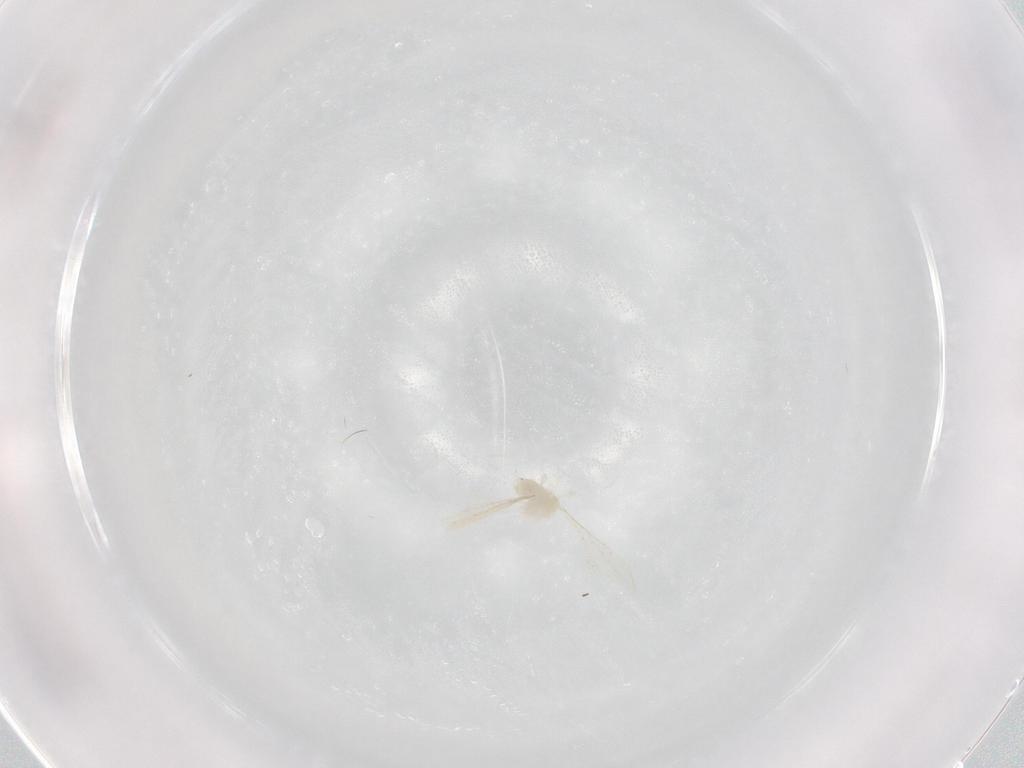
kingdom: Animalia
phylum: Arthropoda
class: Insecta
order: Diptera
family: Cecidomyiidae
